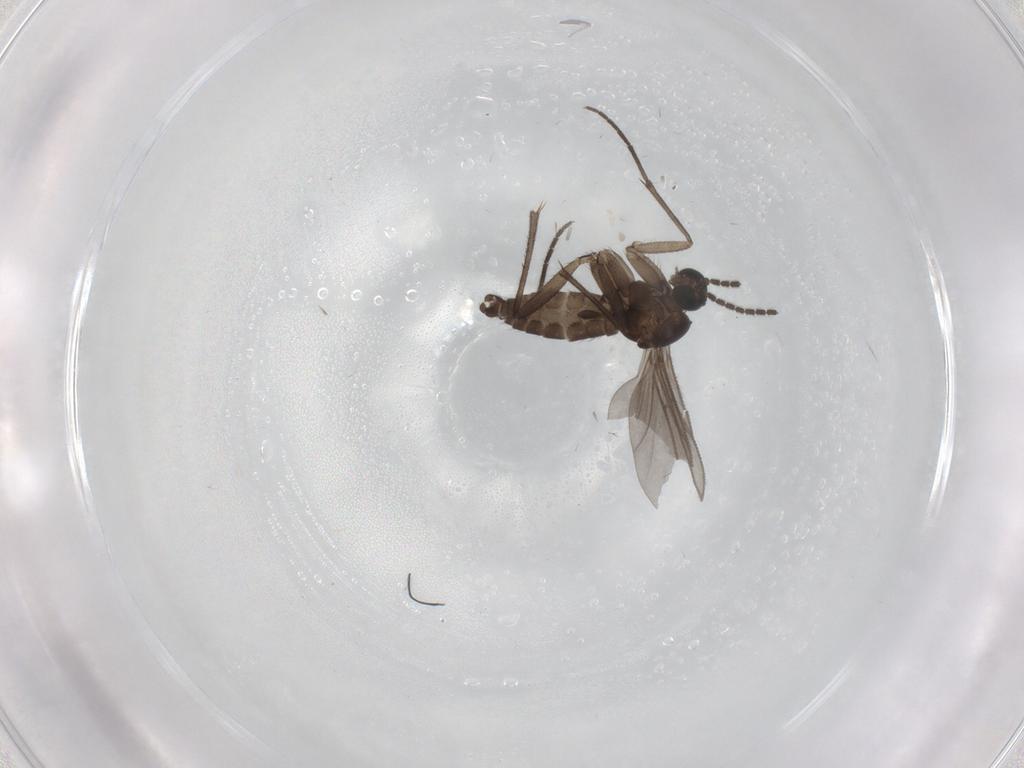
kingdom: Animalia
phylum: Arthropoda
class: Insecta
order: Diptera
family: Sciaridae
